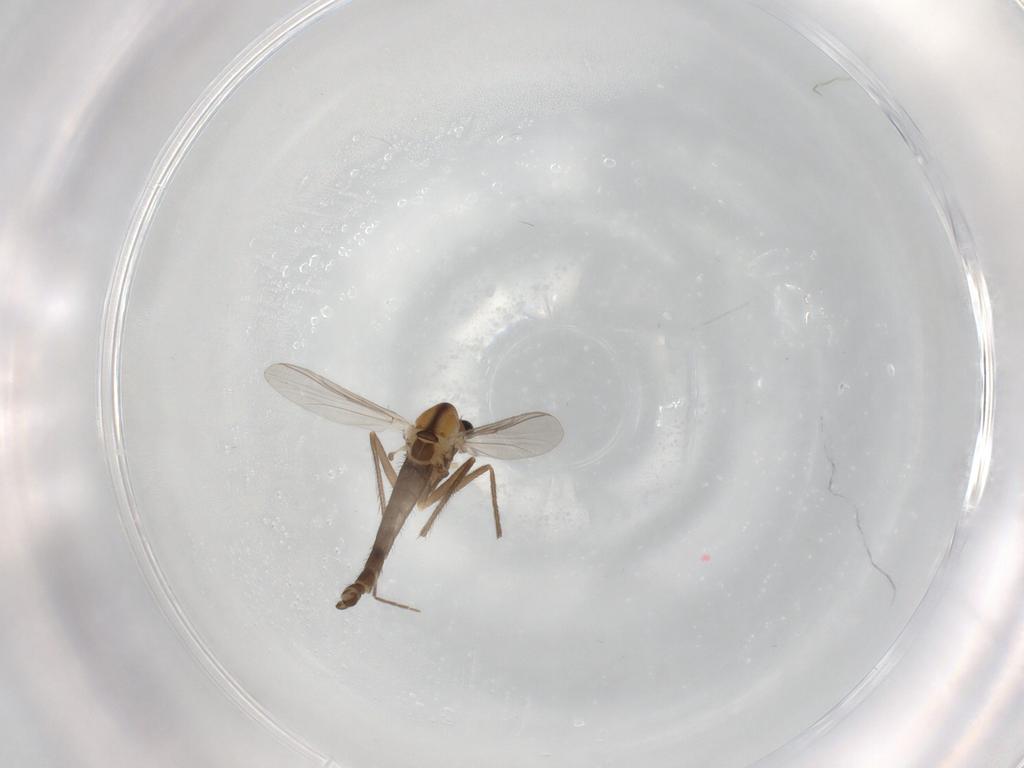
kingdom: Animalia
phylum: Arthropoda
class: Insecta
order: Diptera
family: Chironomidae
